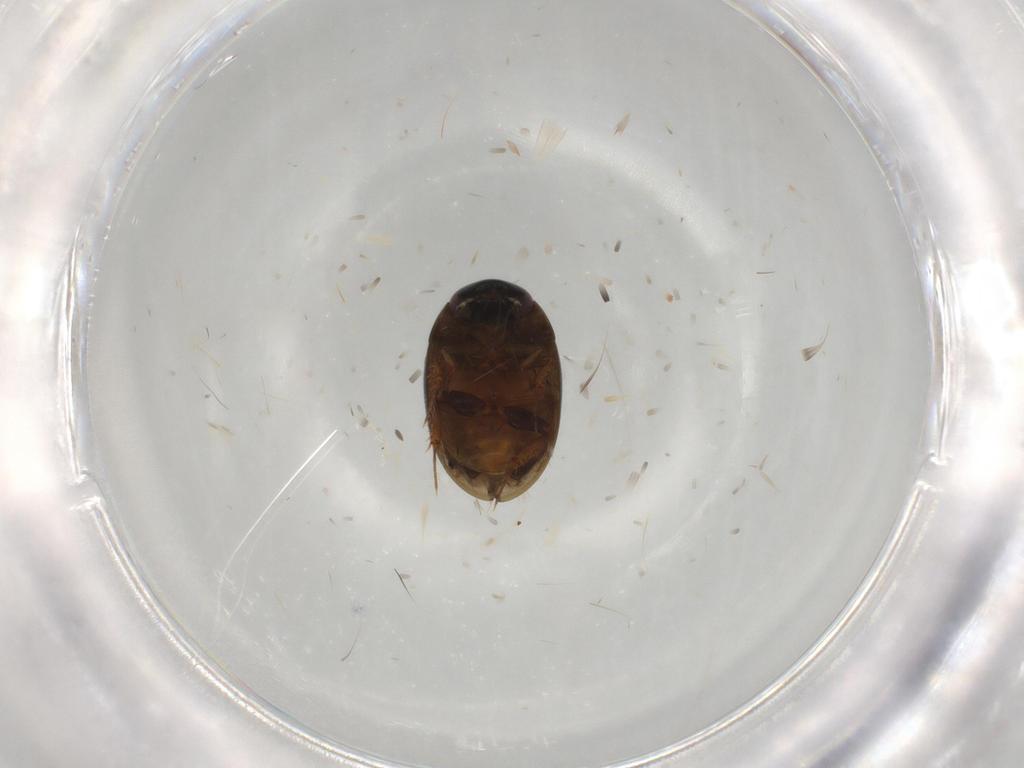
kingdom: Animalia
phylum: Arthropoda
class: Insecta
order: Coleoptera
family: Hydrophilidae
